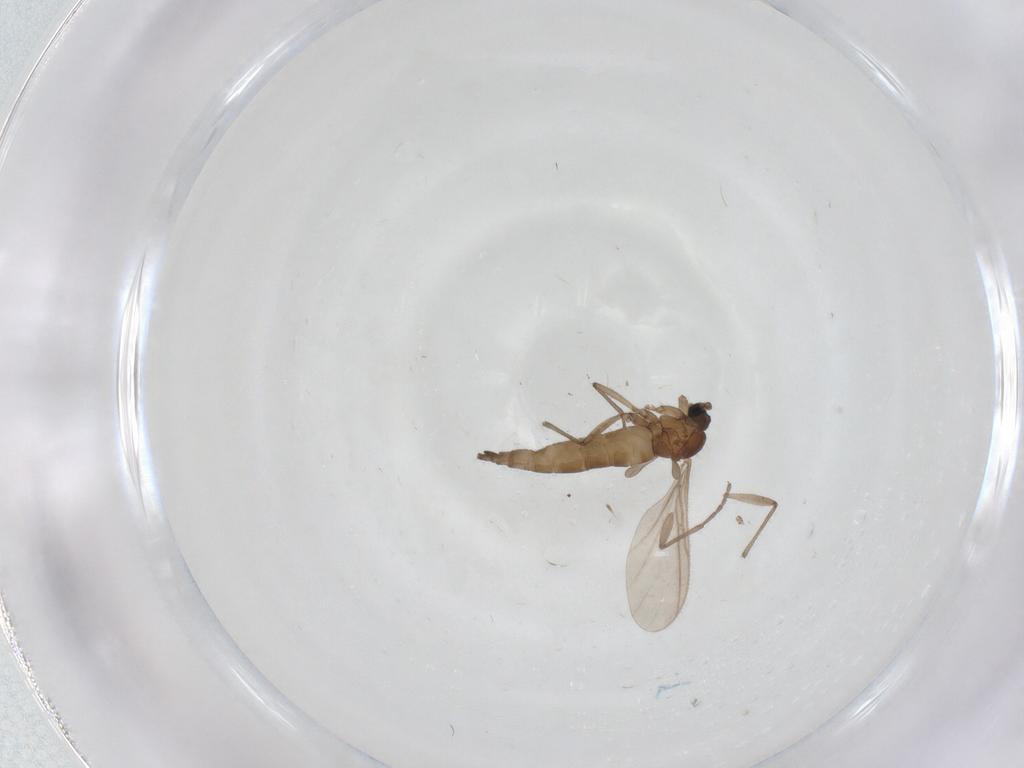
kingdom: Animalia
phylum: Arthropoda
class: Insecta
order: Diptera
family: Sciaridae
